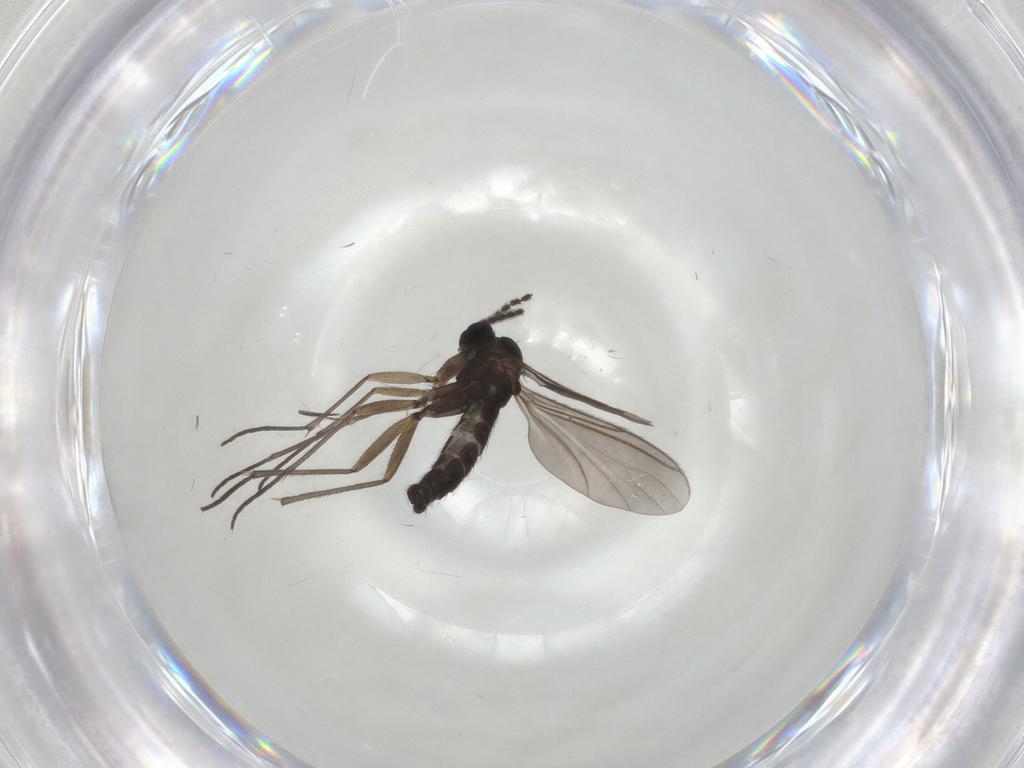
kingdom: Animalia
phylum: Arthropoda
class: Insecta
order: Diptera
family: Sciaridae
